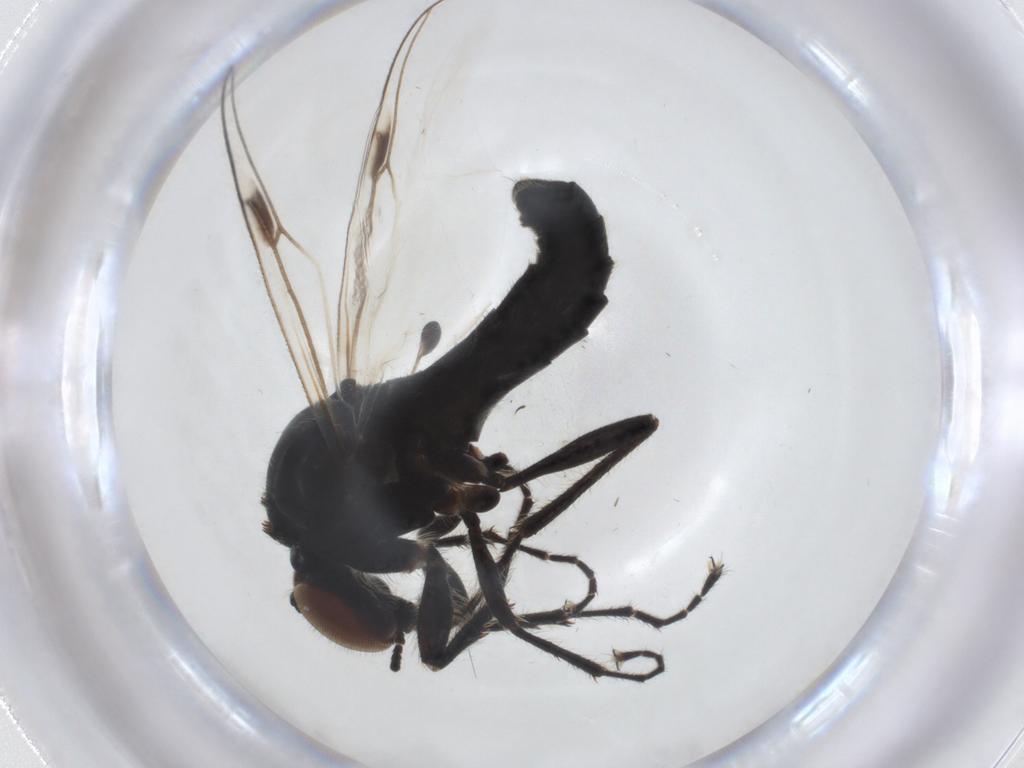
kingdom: Animalia
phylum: Arthropoda
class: Insecta
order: Diptera
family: Bibionidae
